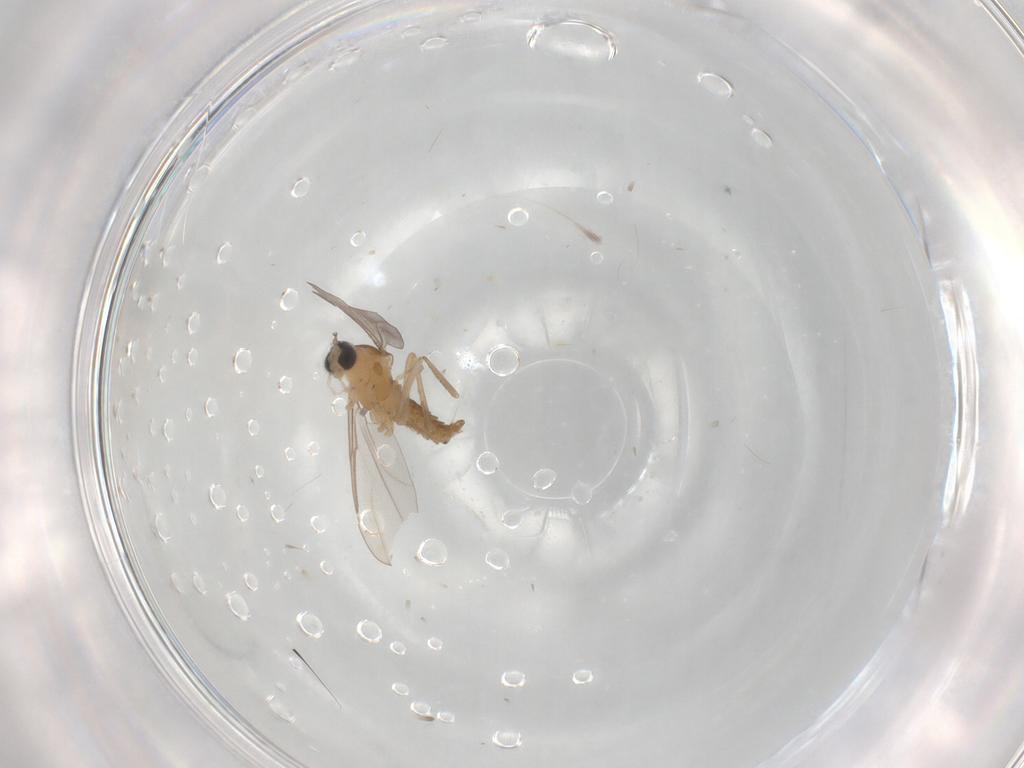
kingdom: Animalia
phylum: Arthropoda
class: Insecta
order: Diptera
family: Cecidomyiidae
